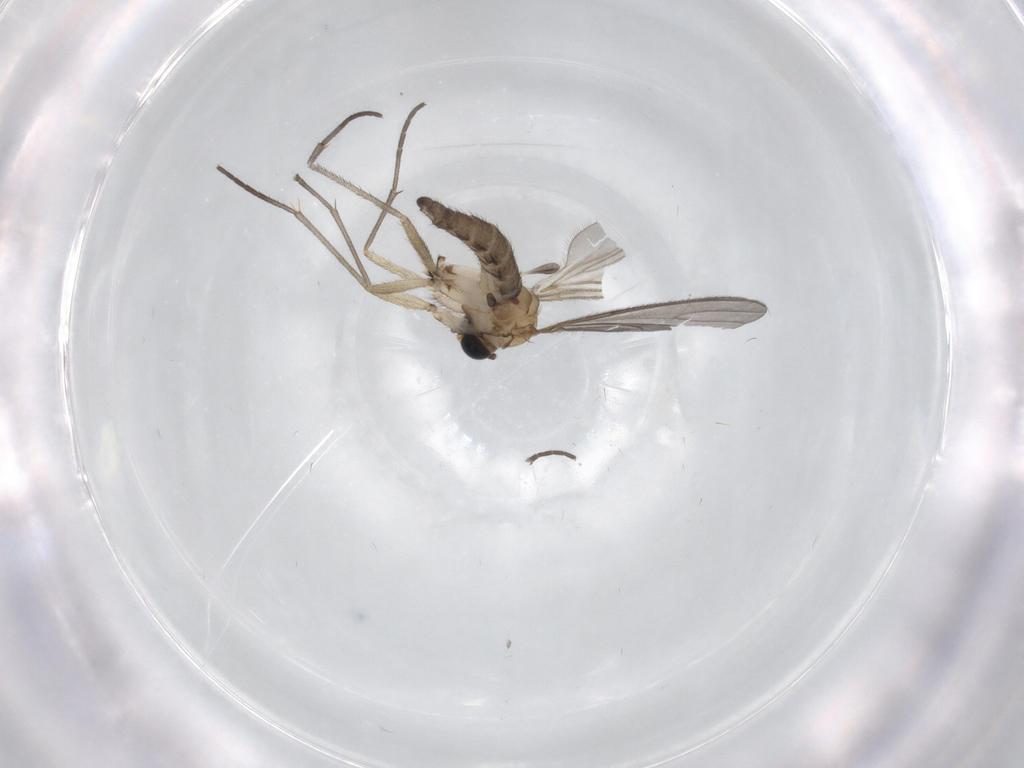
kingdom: Animalia
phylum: Arthropoda
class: Insecta
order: Diptera
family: Sciaridae
